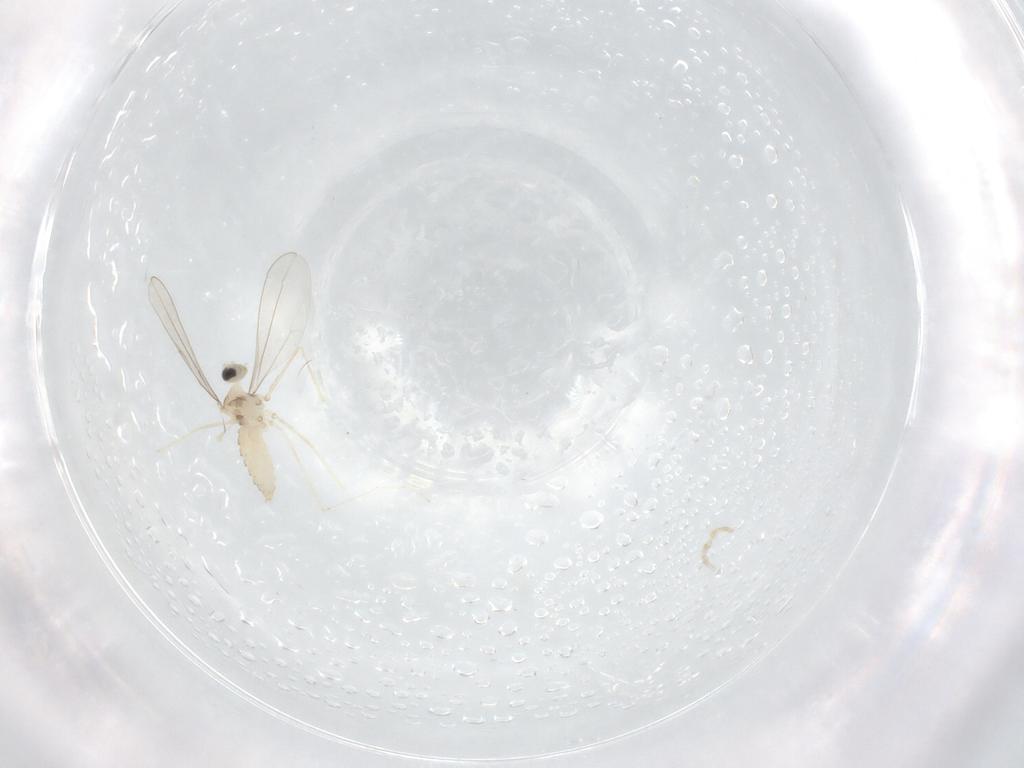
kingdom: Animalia
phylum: Arthropoda
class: Insecta
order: Diptera
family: Cecidomyiidae
